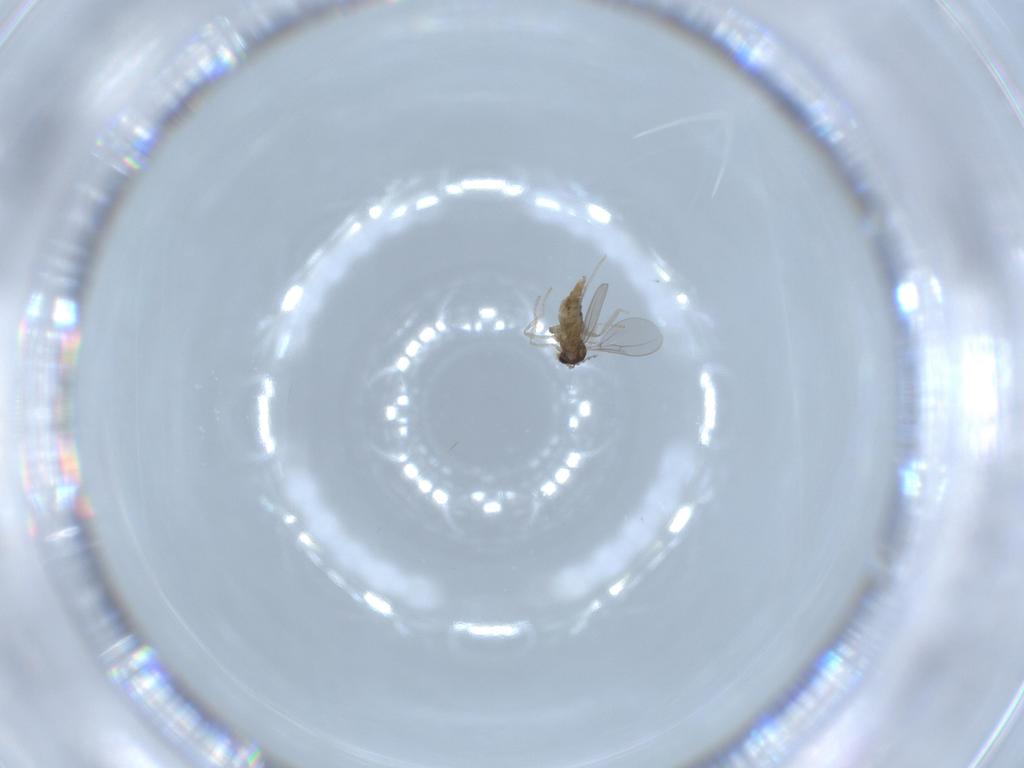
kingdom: Animalia
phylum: Arthropoda
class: Insecta
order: Diptera
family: Cecidomyiidae
